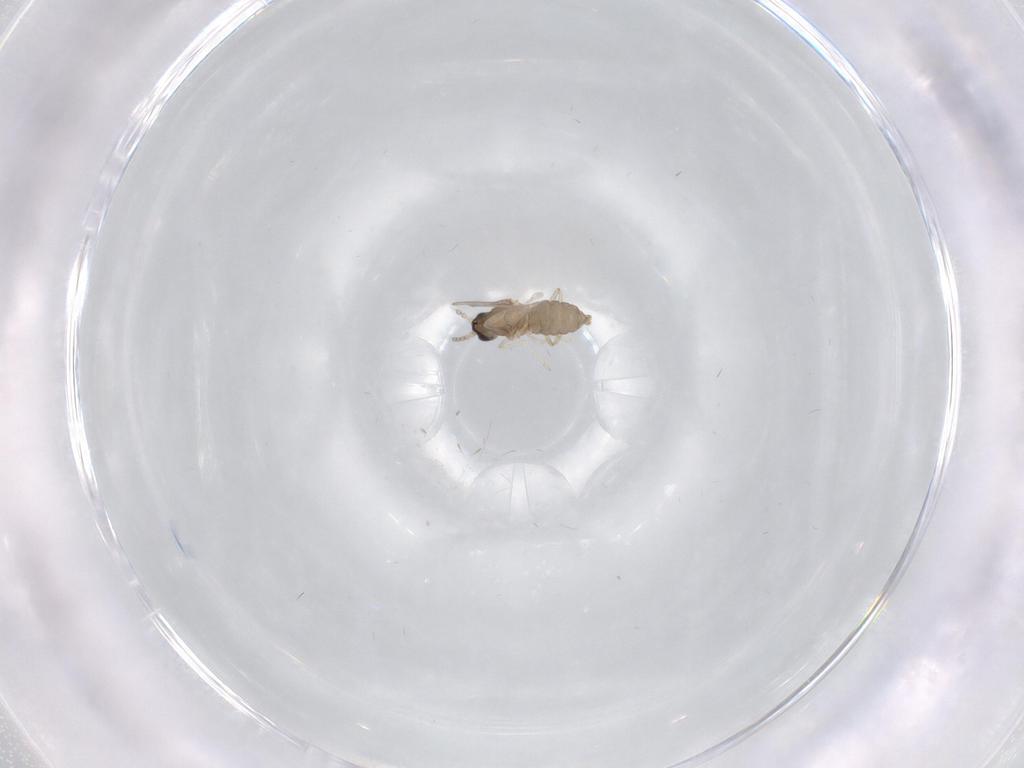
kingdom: Animalia
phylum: Arthropoda
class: Insecta
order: Diptera
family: Cecidomyiidae
